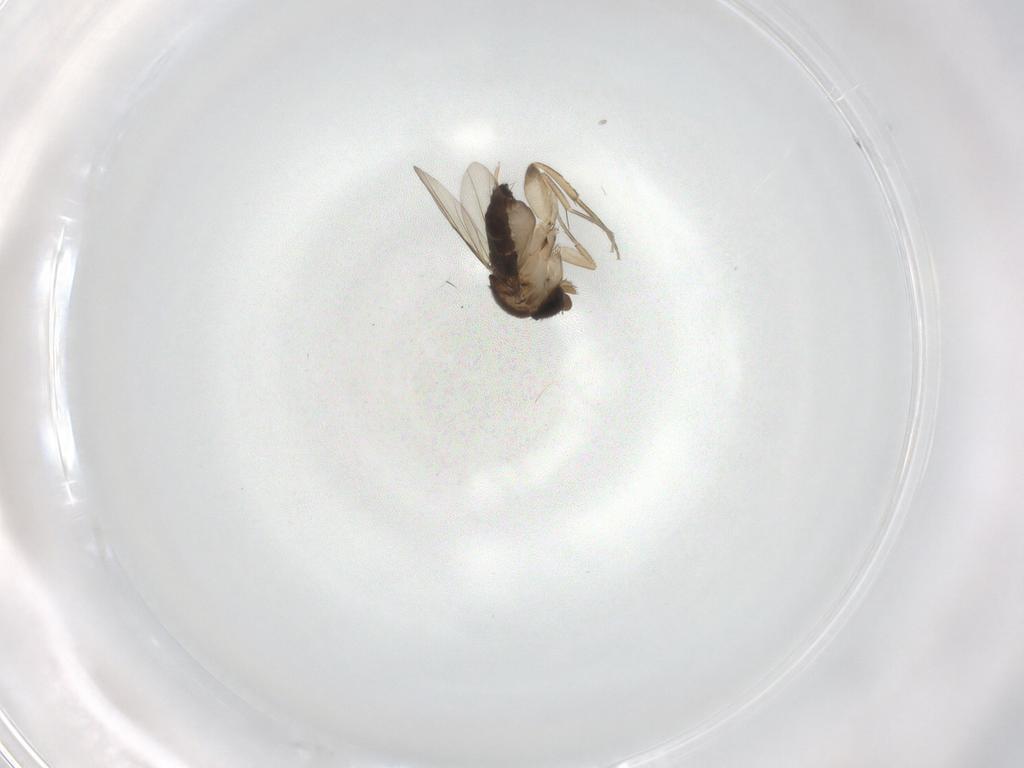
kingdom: Animalia
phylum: Arthropoda
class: Insecta
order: Diptera
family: Phoridae
